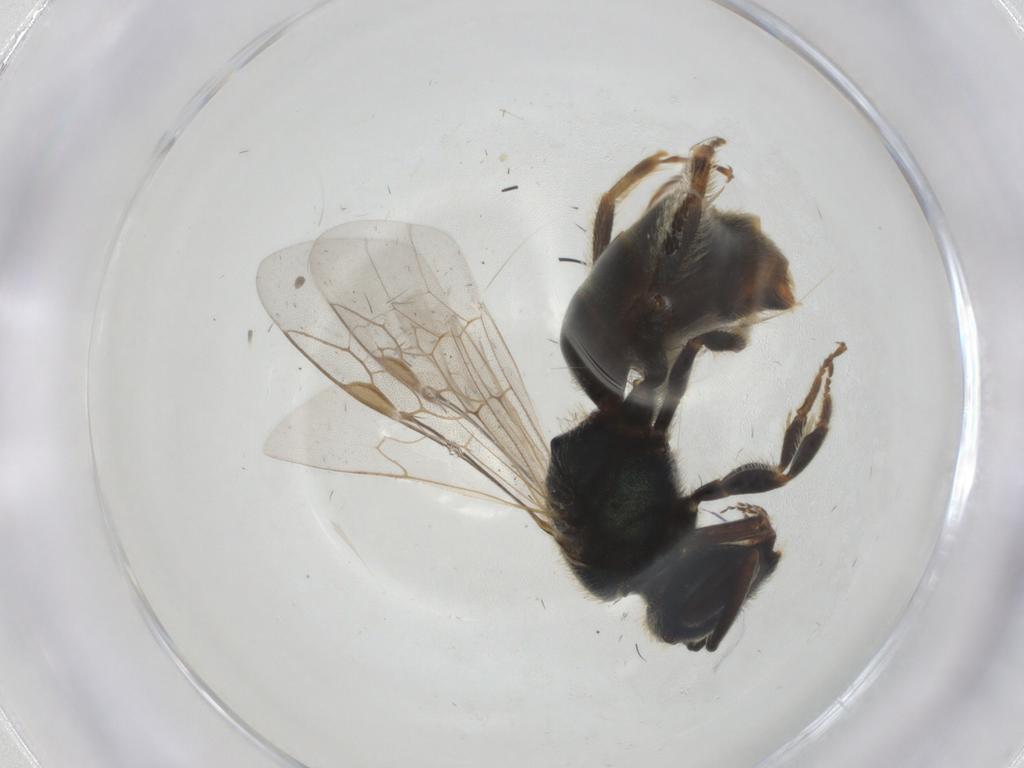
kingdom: Animalia
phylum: Arthropoda
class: Insecta
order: Hymenoptera
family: Halictidae
